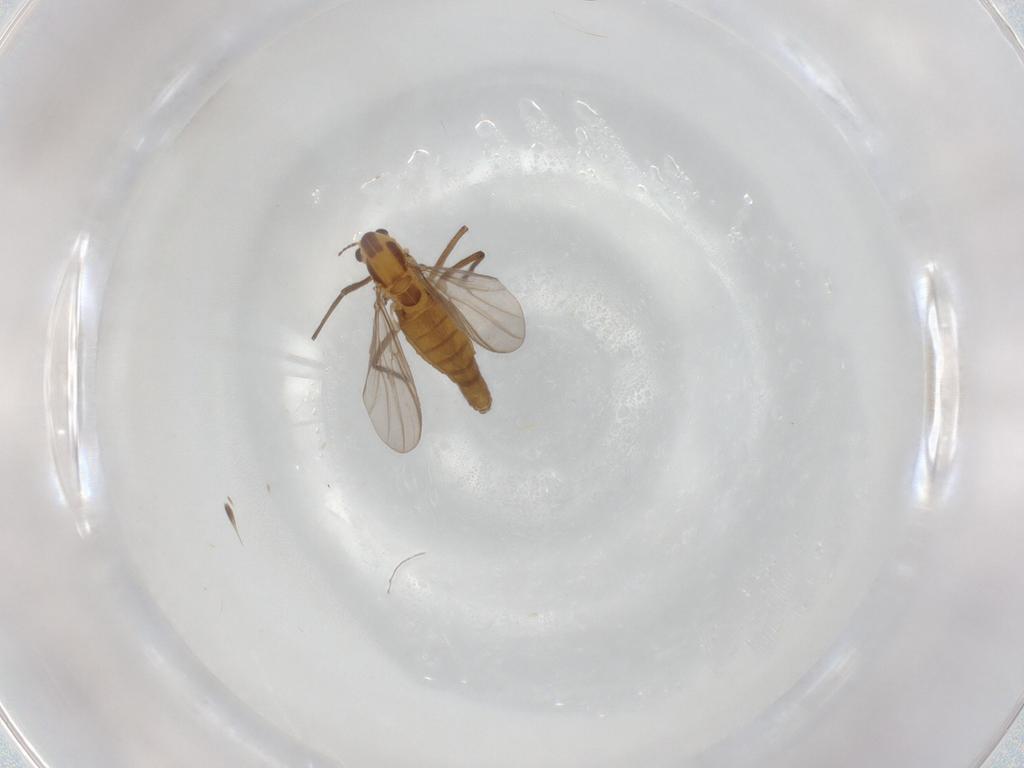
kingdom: Animalia
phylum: Arthropoda
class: Insecta
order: Diptera
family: Chironomidae
